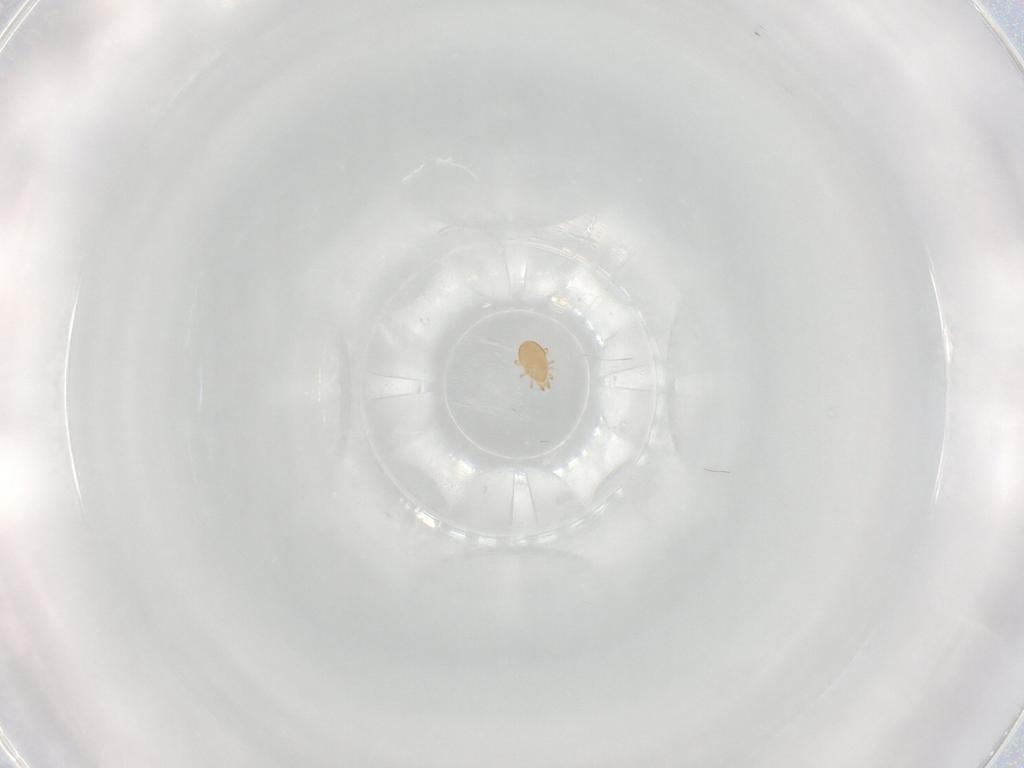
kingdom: Animalia
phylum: Arthropoda
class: Arachnida
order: Mesostigmata
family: Phytoseiidae
